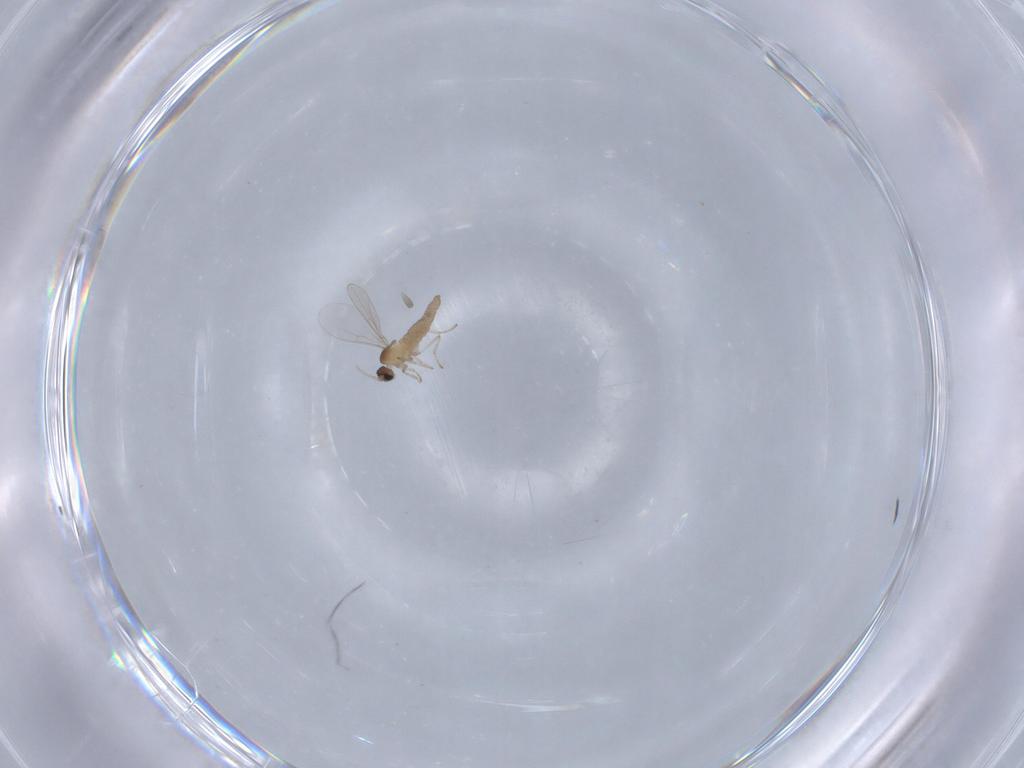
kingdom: Animalia
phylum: Arthropoda
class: Insecta
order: Diptera
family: Cecidomyiidae
